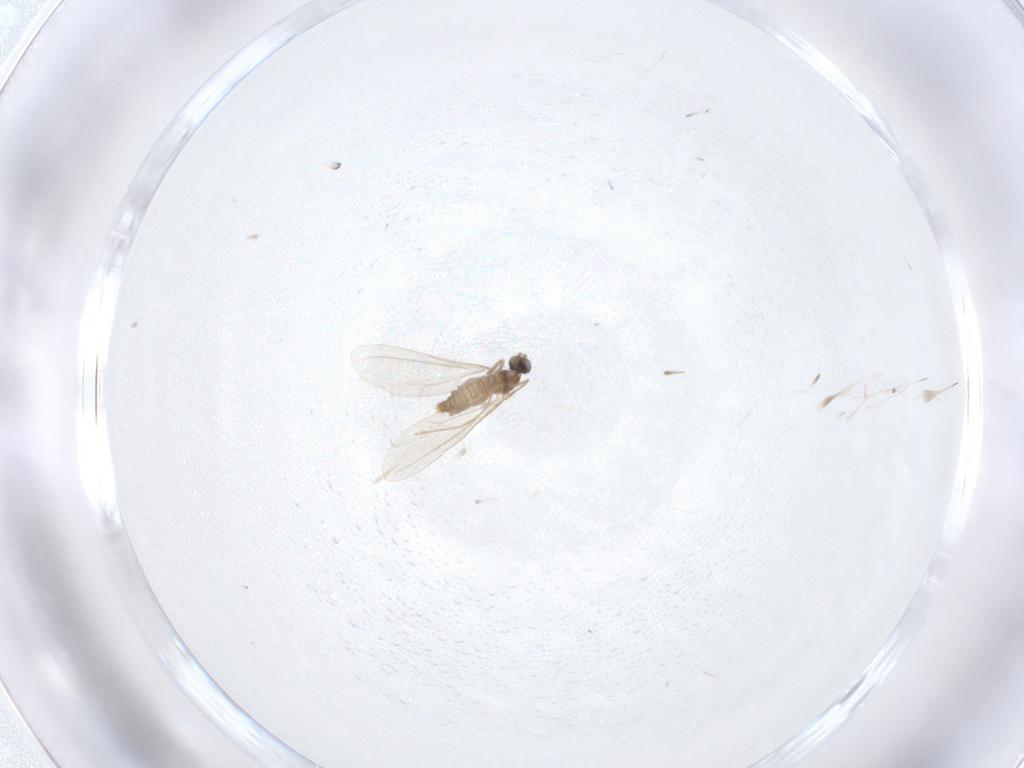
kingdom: Animalia
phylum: Arthropoda
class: Insecta
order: Diptera
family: Cecidomyiidae
